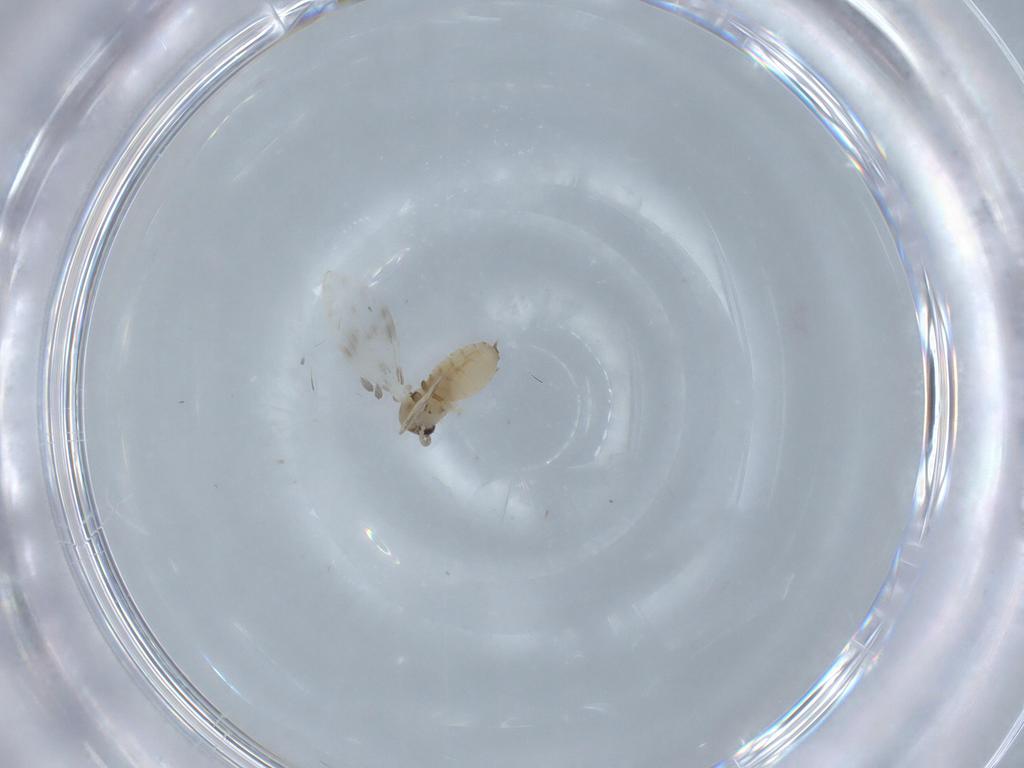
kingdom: Animalia
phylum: Arthropoda
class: Insecta
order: Diptera
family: Psychodidae
